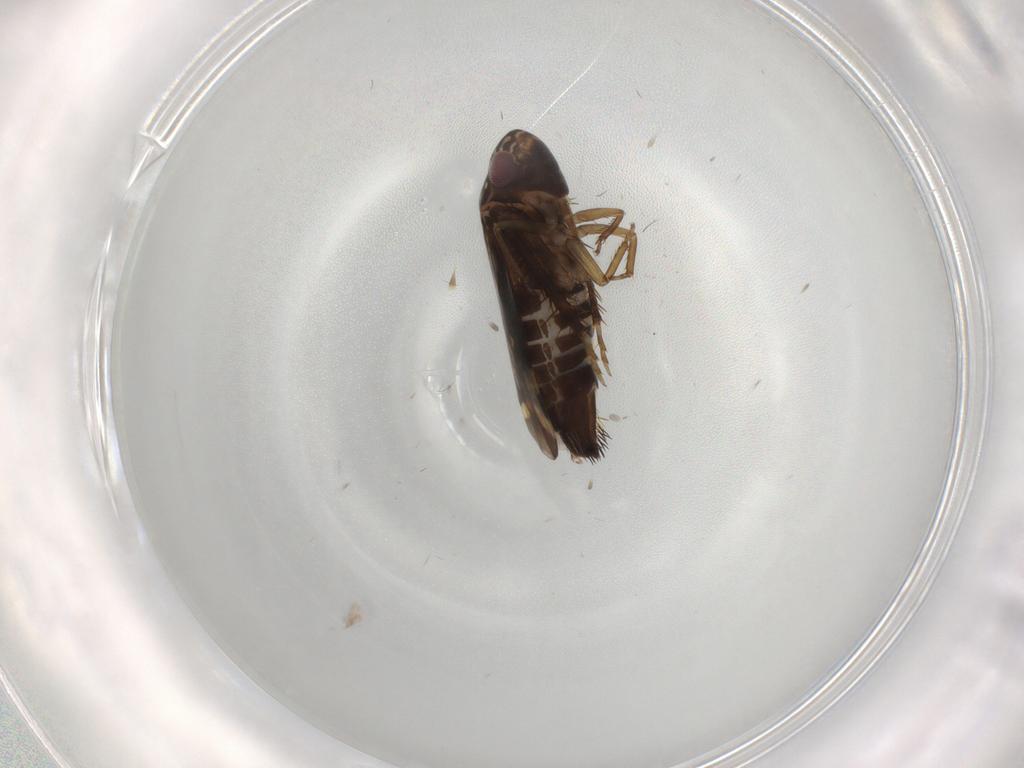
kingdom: Animalia
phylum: Arthropoda
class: Insecta
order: Hemiptera
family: Cicadellidae
